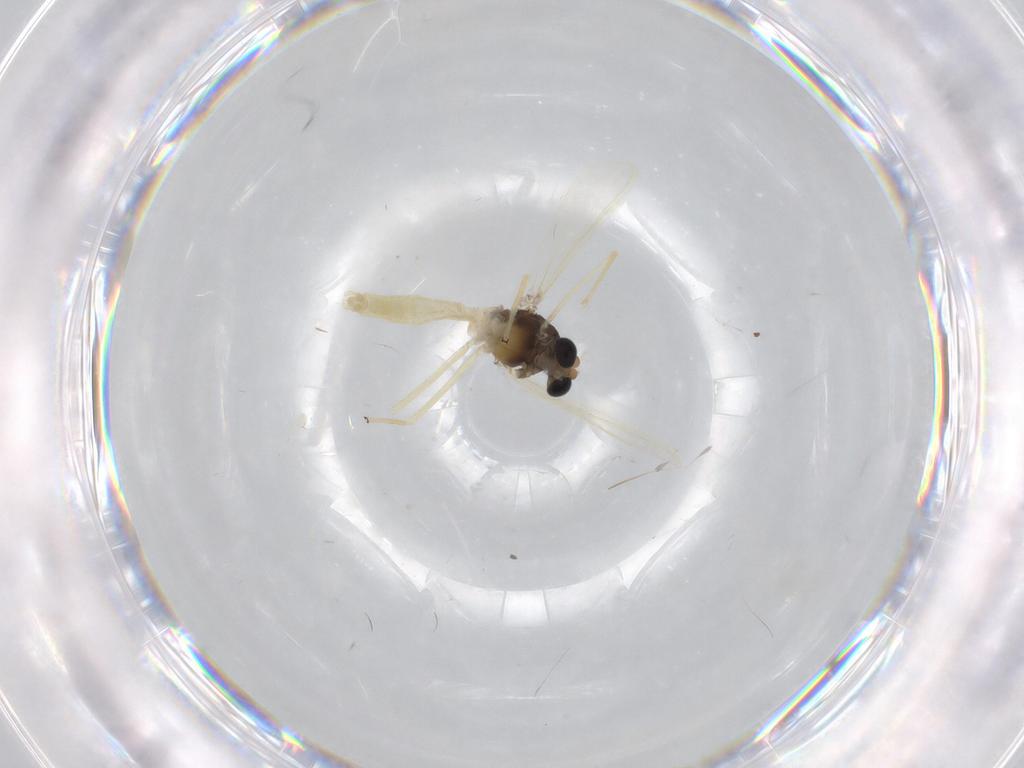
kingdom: Animalia
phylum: Arthropoda
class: Insecta
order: Diptera
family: Chironomidae
